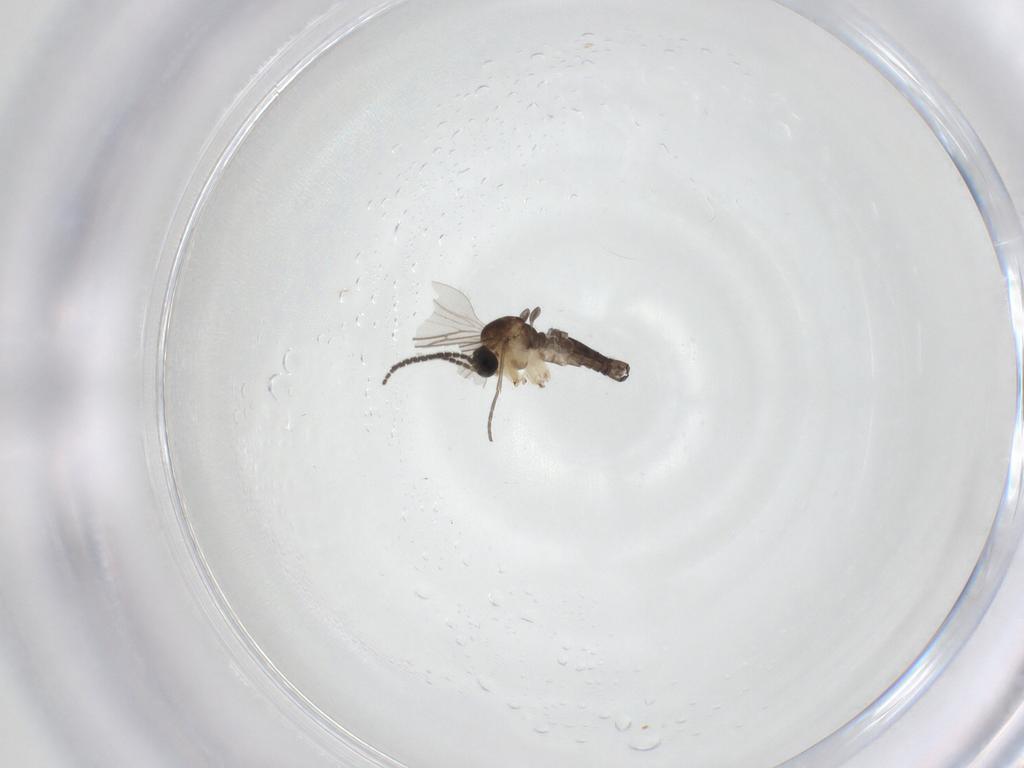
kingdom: Animalia
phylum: Arthropoda
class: Insecta
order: Diptera
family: Sciaridae
